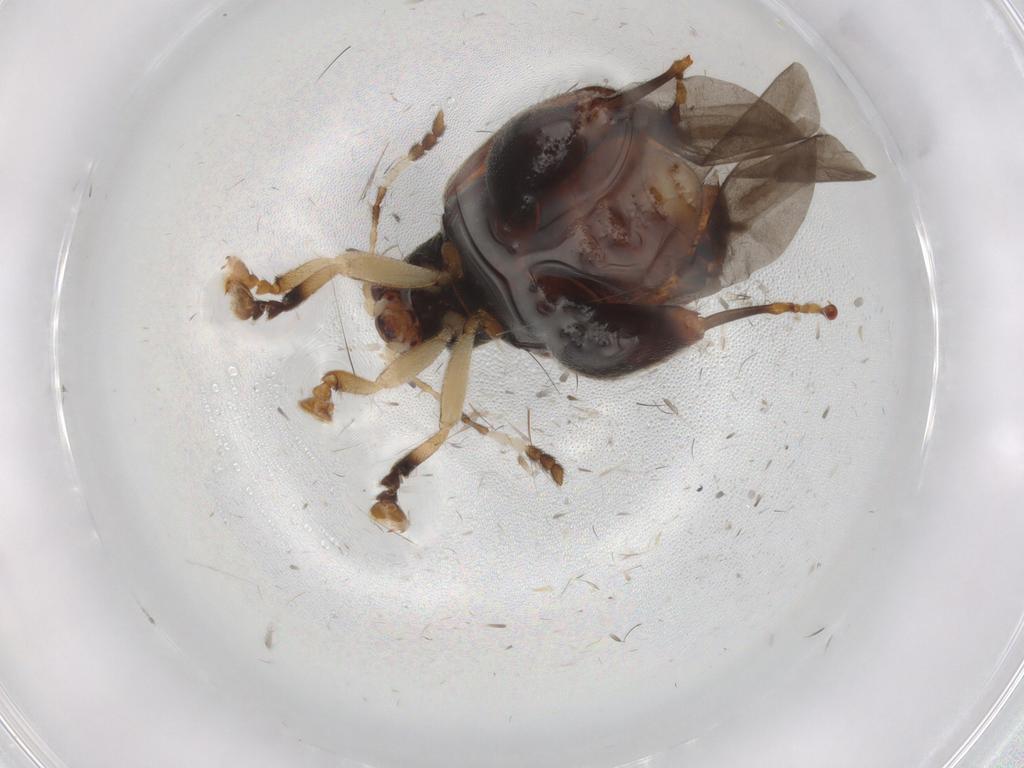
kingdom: Animalia
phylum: Arthropoda
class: Insecta
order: Coleoptera
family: Chrysomelidae
